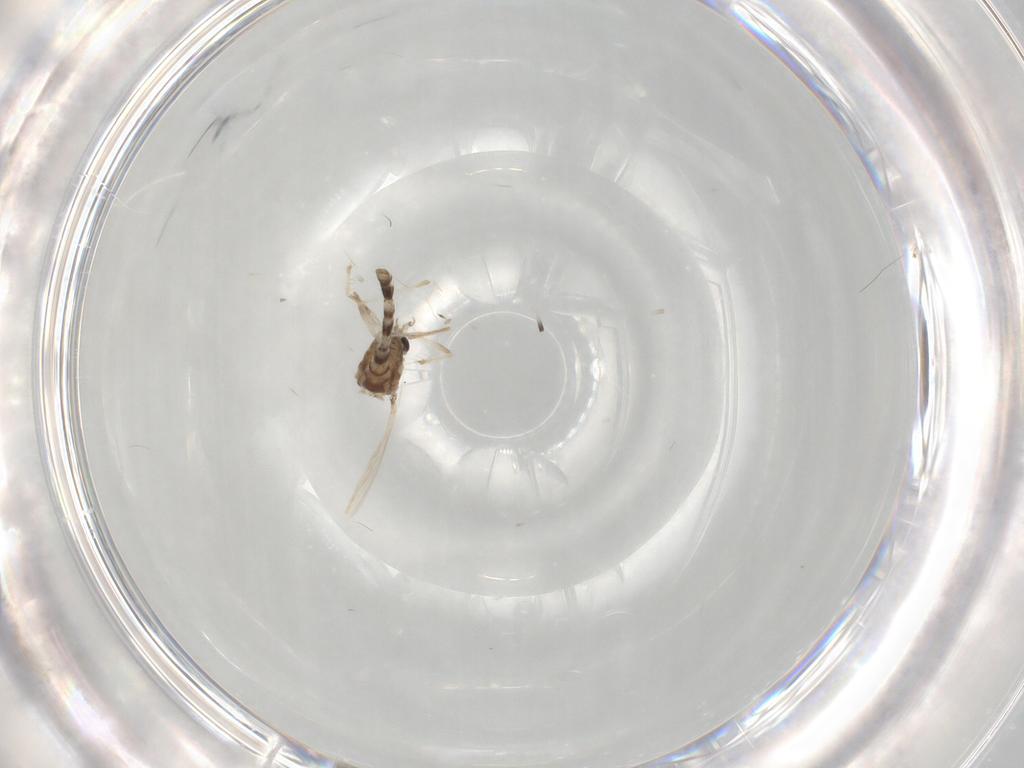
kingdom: Animalia
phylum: Arthropoda
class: Insecta
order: Diptera
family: Chironomidae
